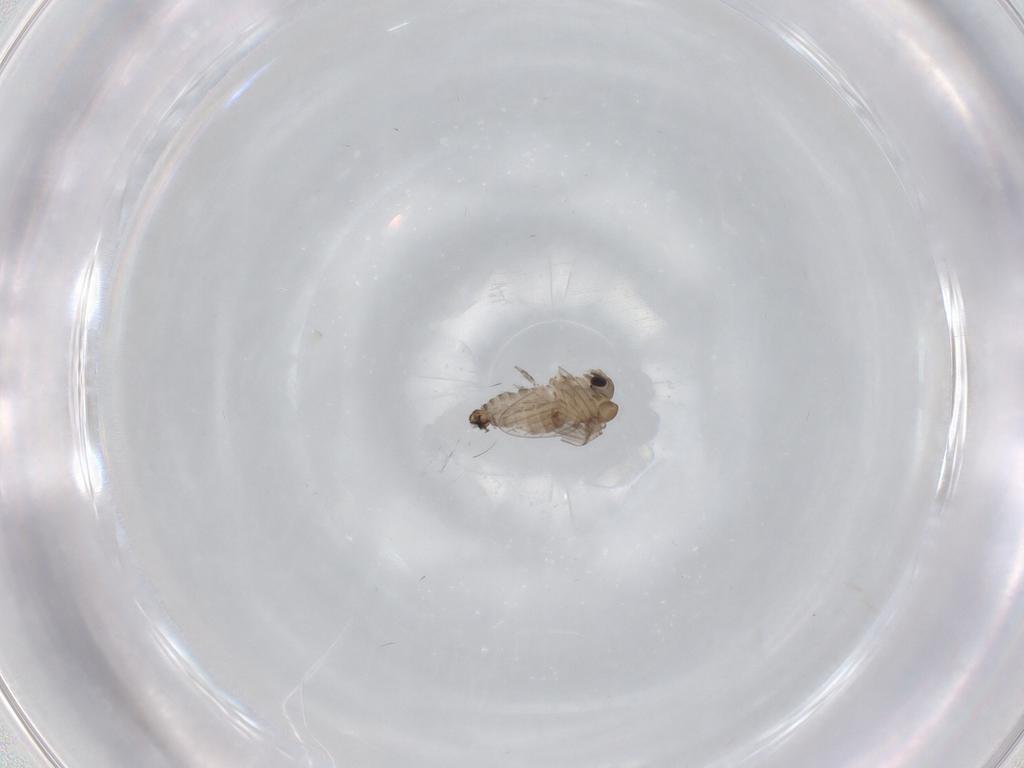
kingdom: Animalia
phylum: Arthropoda
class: Insecta
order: Diptera
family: Psychodidae
